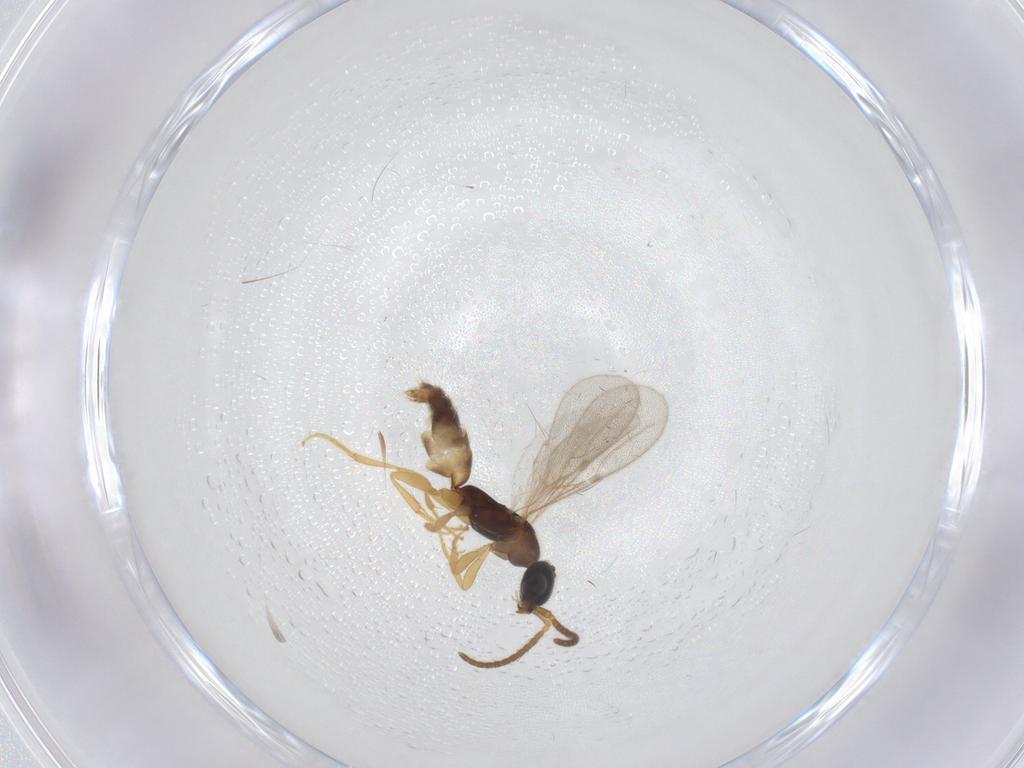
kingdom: Animalia
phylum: Arthropoda
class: Insecta
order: Hymenoptera
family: Bethylidae
